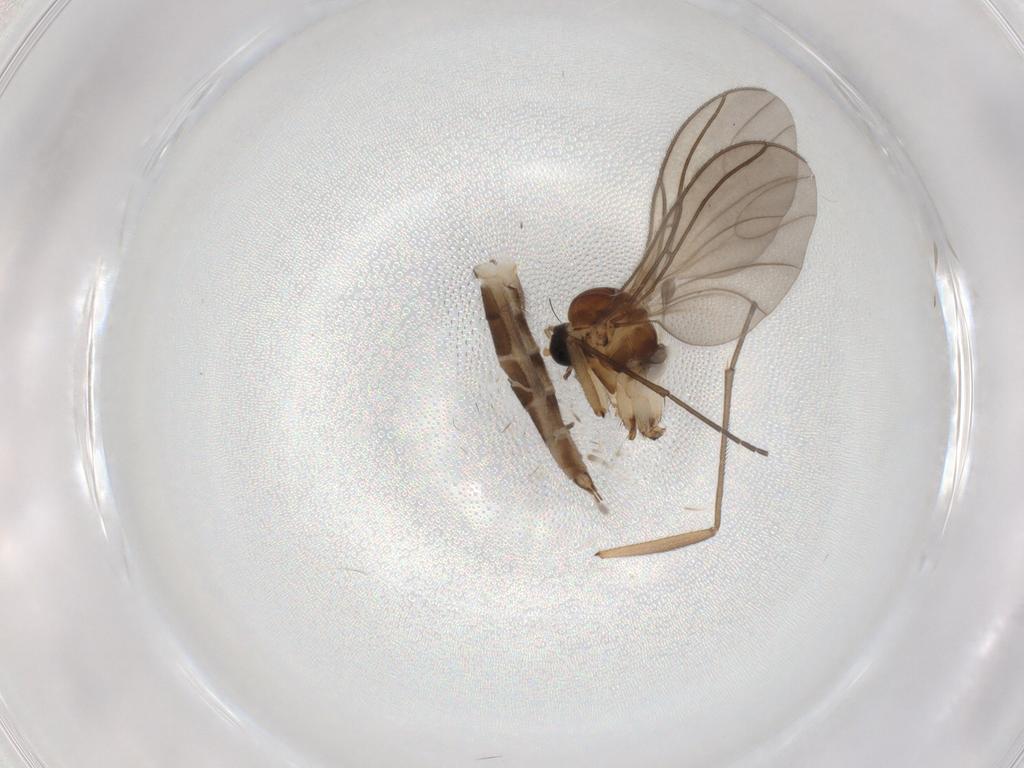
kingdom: Animalia
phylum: Arthropoda
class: Insecta
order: Diptera
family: Sciaridae
